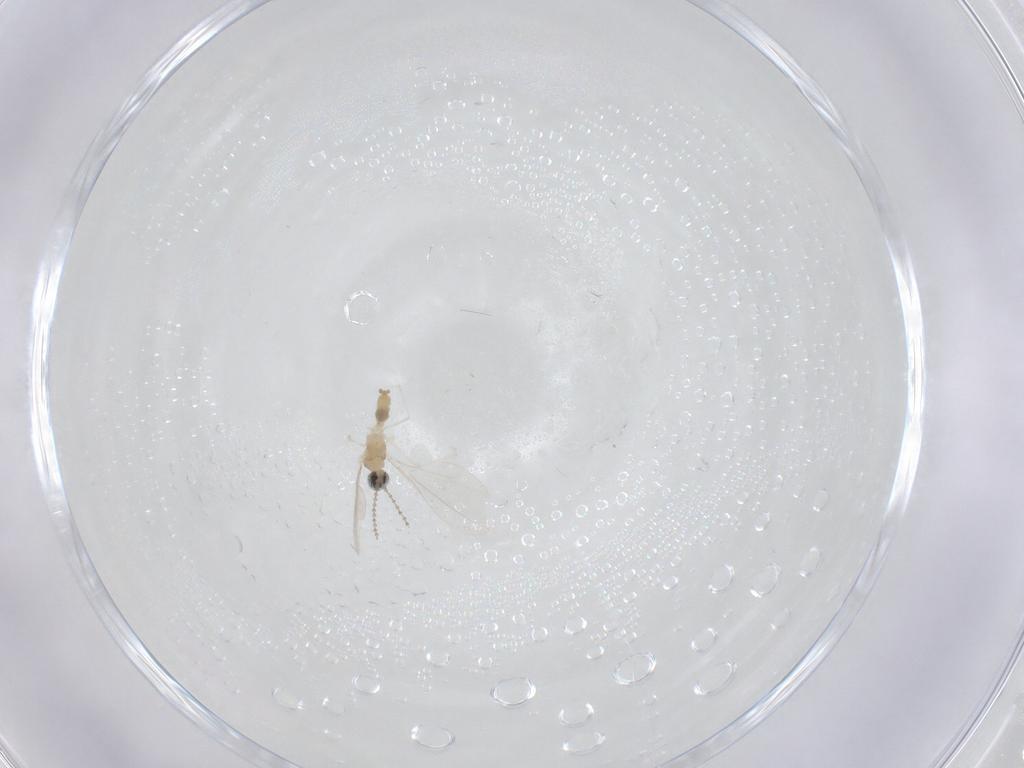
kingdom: Animalia
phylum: Arthropoda
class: Insecta
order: Diptera
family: Cecidomyiidae
